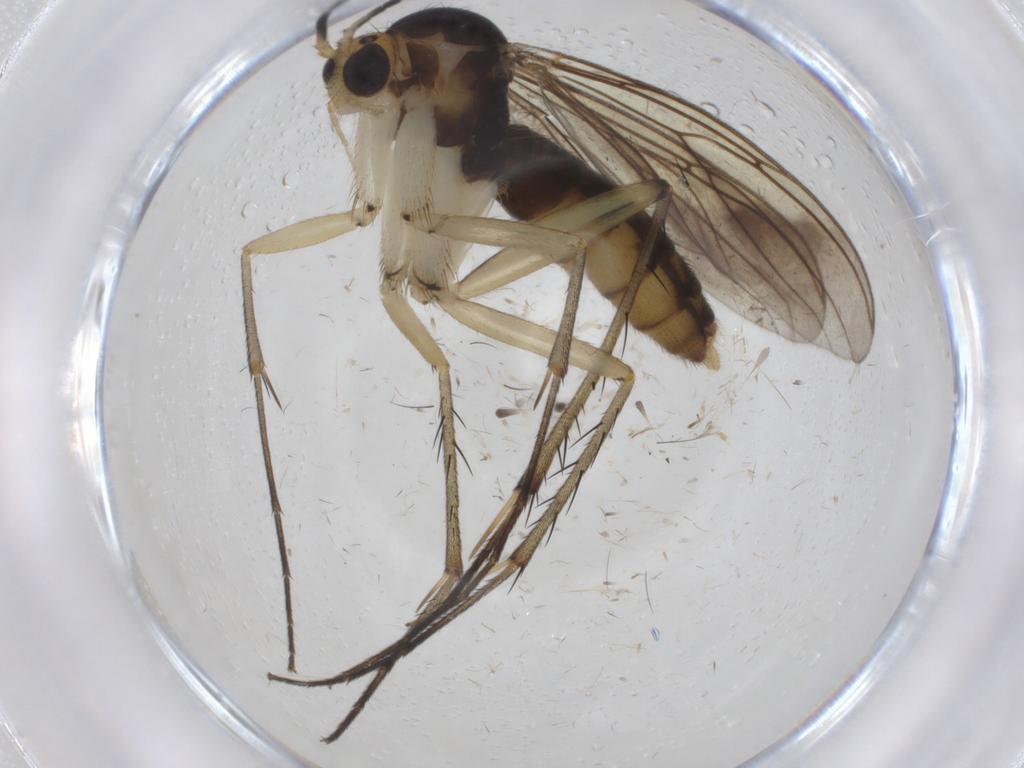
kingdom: Animalia
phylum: Arthropoda
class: Insecta
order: Diptera
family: Mycetophilidae
